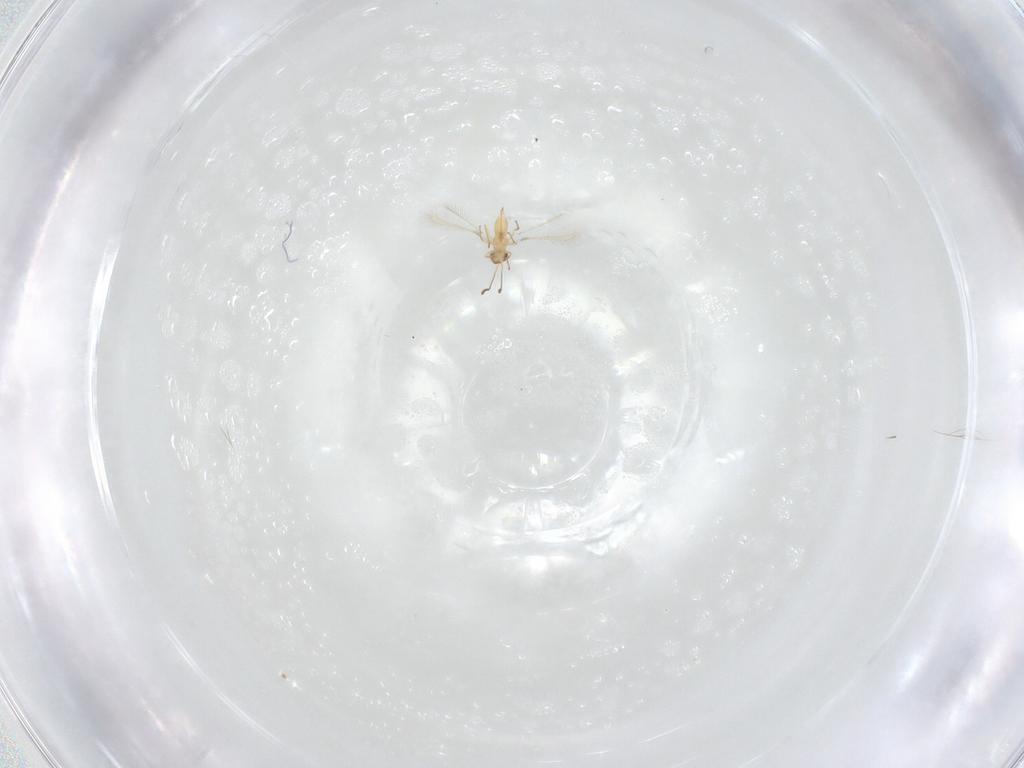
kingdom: Animalia
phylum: Arthropoda
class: Insecta
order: Hymenoptera
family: Mymaridae
